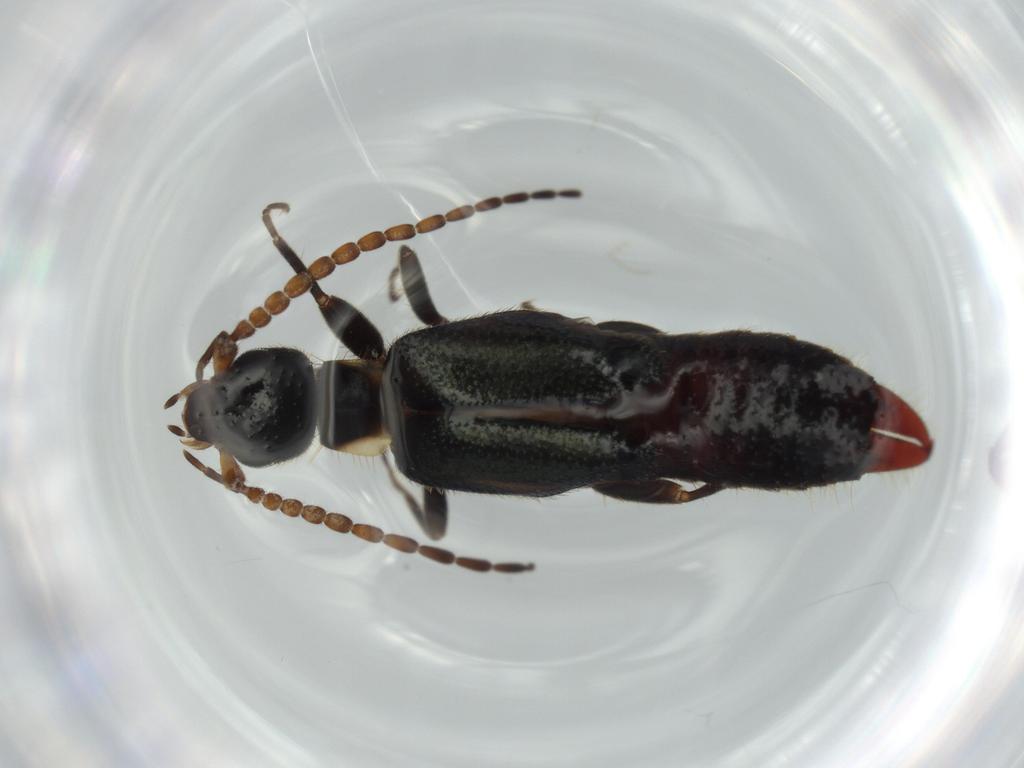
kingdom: Animalia
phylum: Arthropoda
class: Insecta
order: Dermaptera
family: Forficulidae
